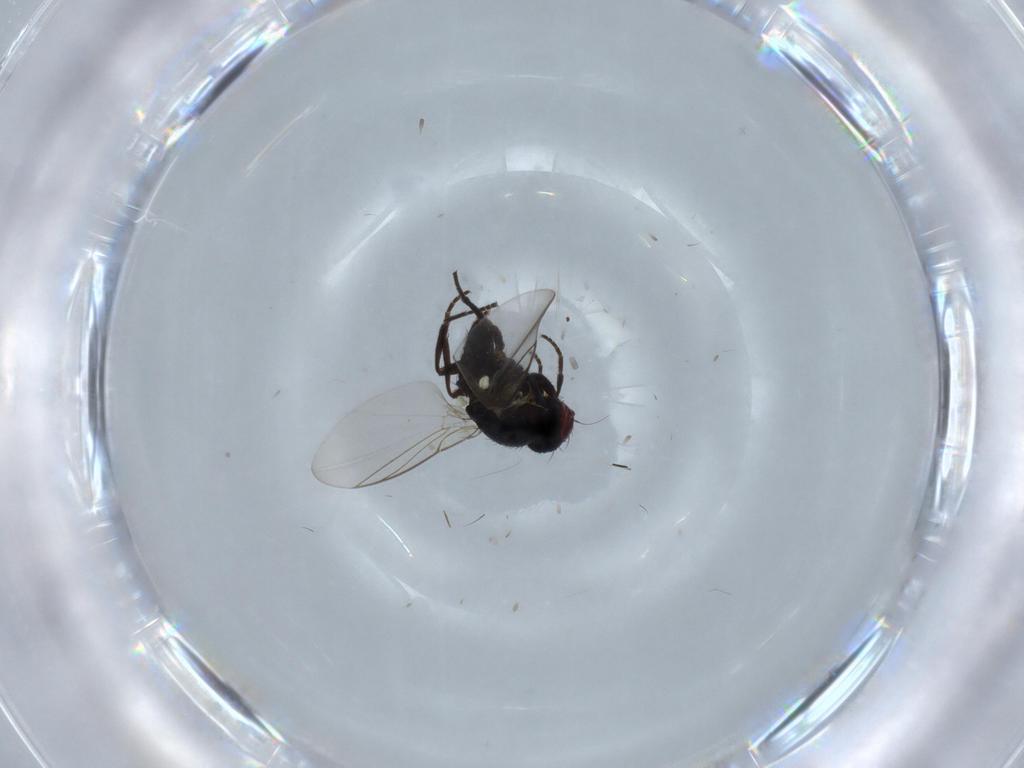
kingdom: Animalia
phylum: Arthropoda
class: Insecta
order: Diptera
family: Agromyzidae
